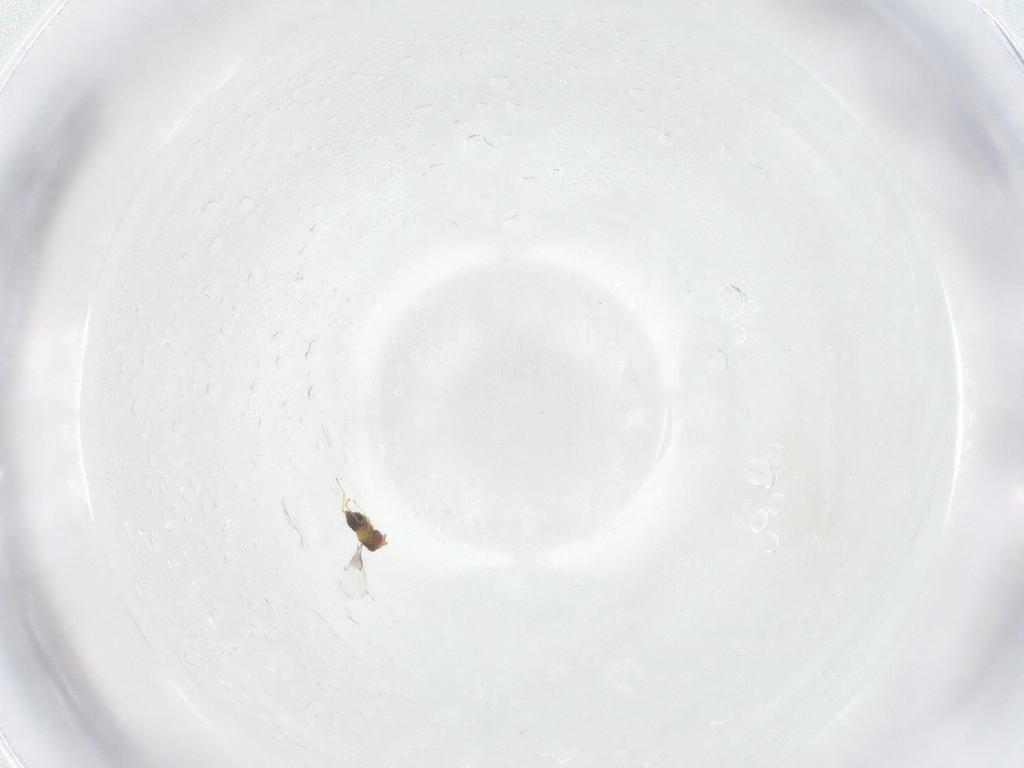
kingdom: Animalia
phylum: Arthropoda
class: Insecta
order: Hymenoptera
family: Trichogrammatidae
